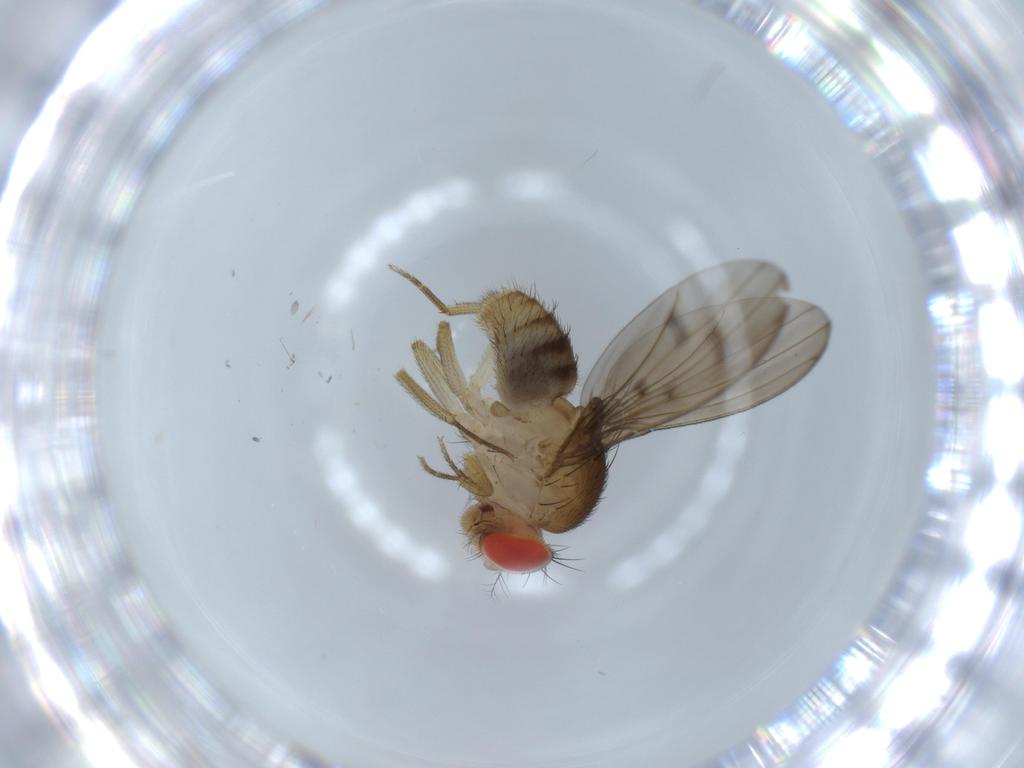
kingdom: Animalia
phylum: Arthropoda
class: Insecta
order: Diptera
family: Drosophilidae
